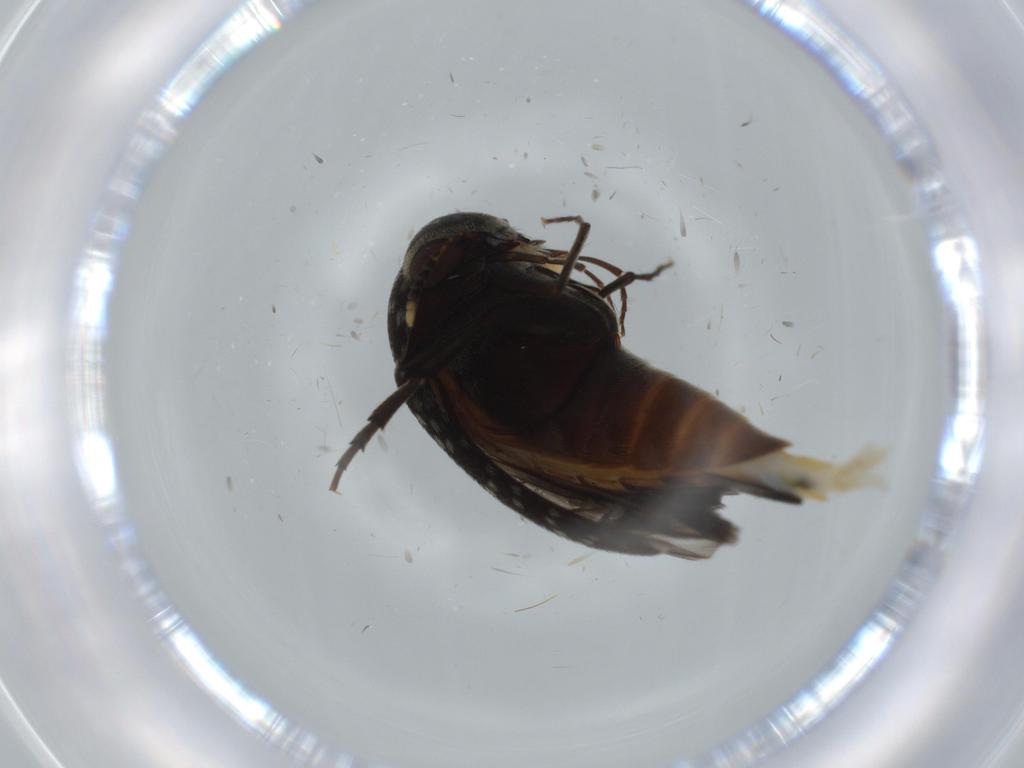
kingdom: Animalia
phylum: Arthropoda
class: Insecta
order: Coleoptera
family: Mordellidae
